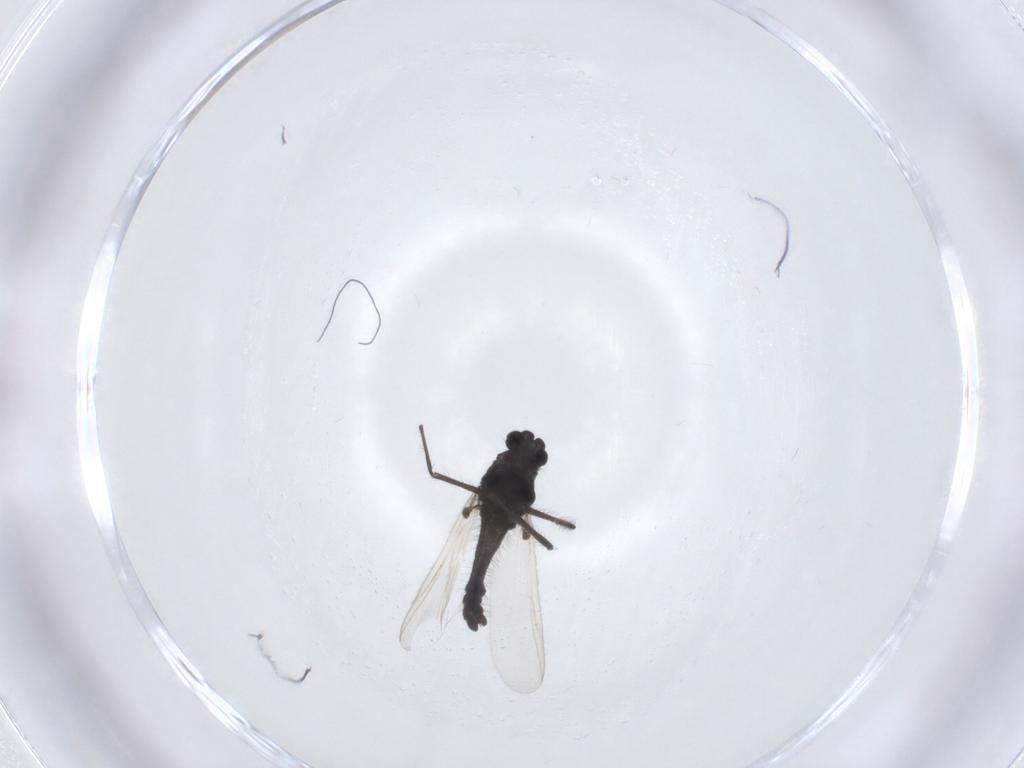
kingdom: Animalia
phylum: Arthropoda
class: Insecta
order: Diptera
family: Chironomidae
